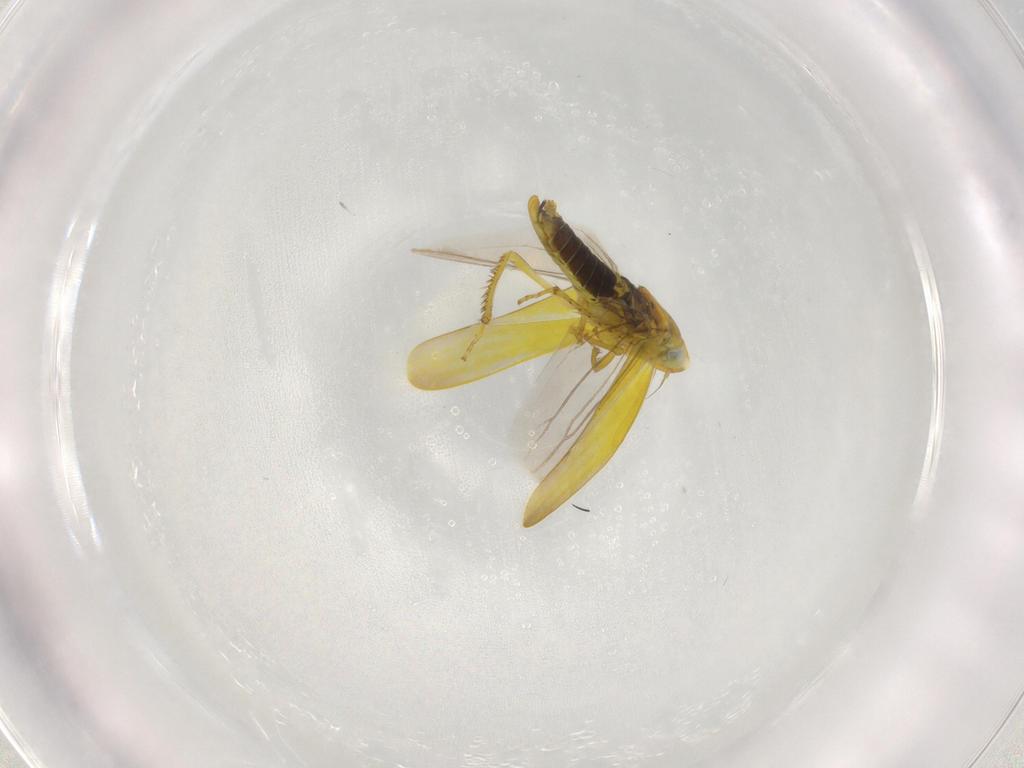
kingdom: Animalia
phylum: Arthropoda
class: Insecta
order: Hemiptera
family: Cicadellidae
